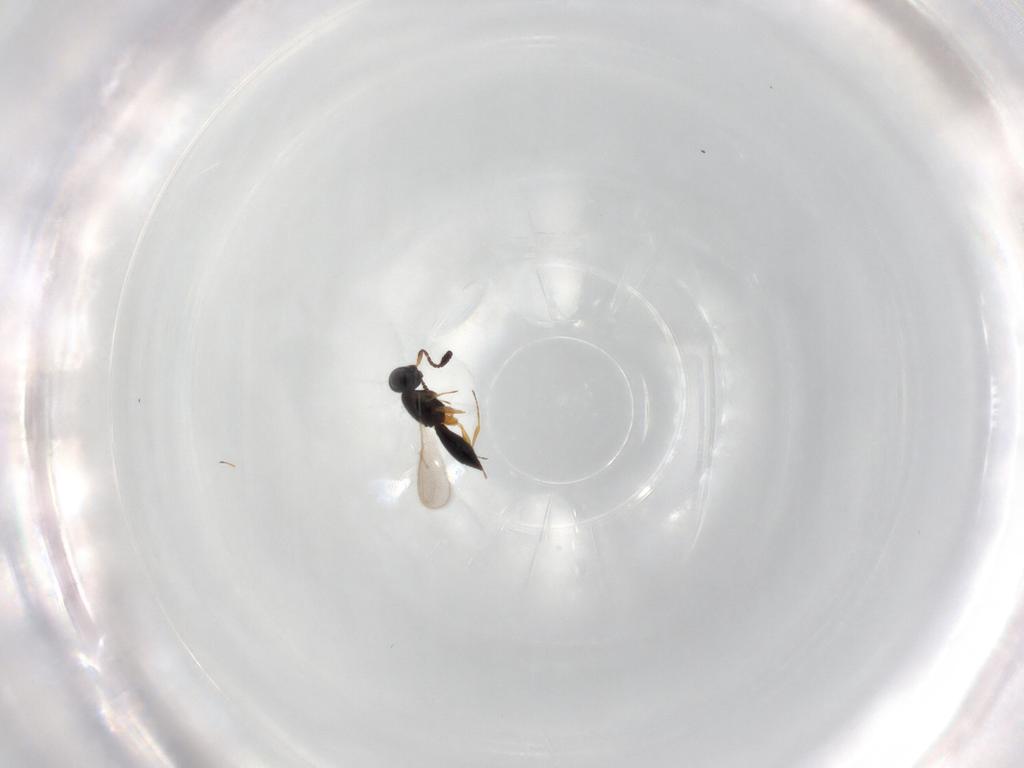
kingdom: Animalia
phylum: Arthropoda
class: Insecta
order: Hymenoptera
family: Scelionidae
